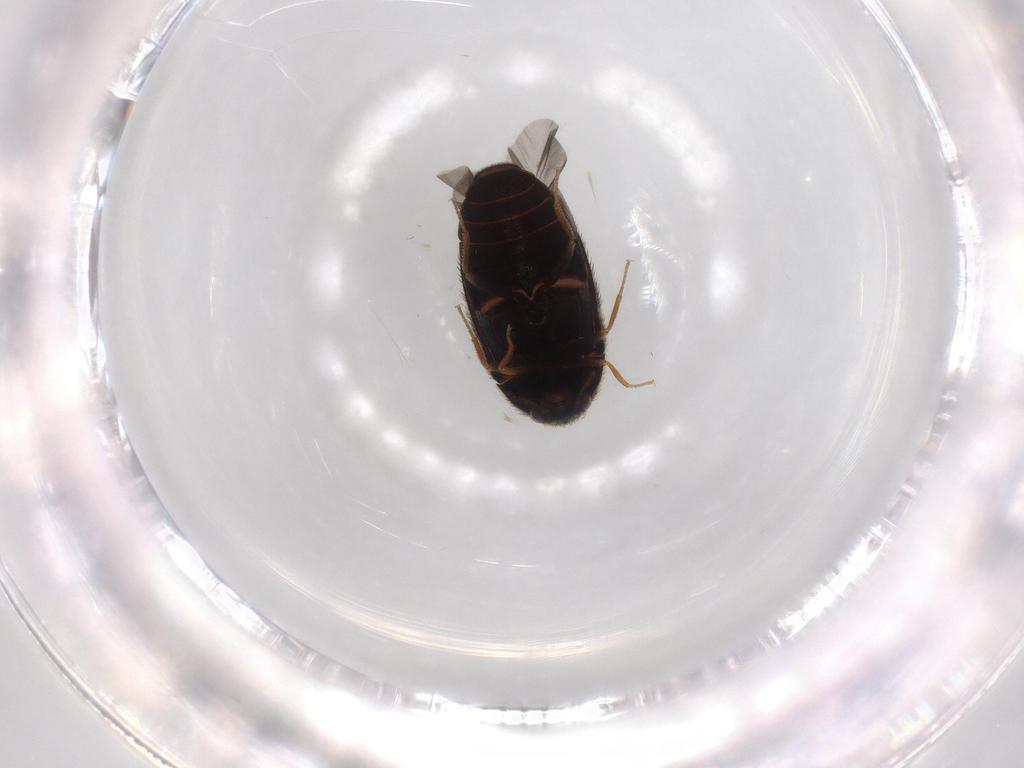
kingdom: Animalia
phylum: Arthropoda
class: Insecta
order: Coleoptera
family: Dermestidae
